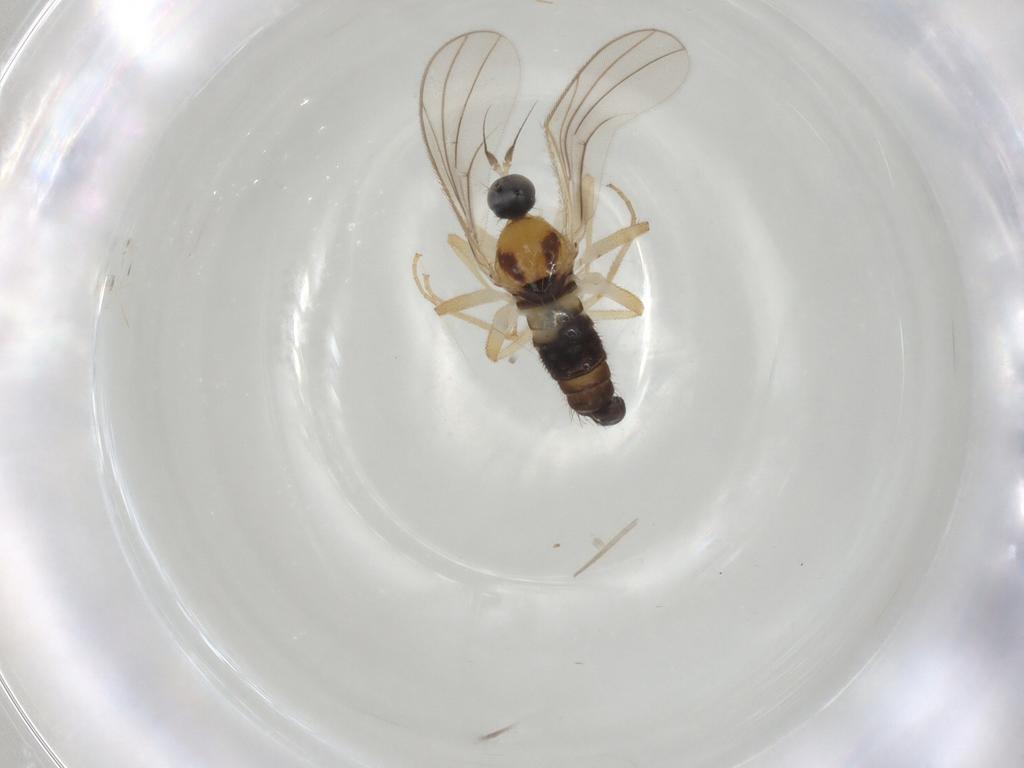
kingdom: Animalia
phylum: Arthropoda
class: Insecta
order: Diptera
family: Hybotidae
